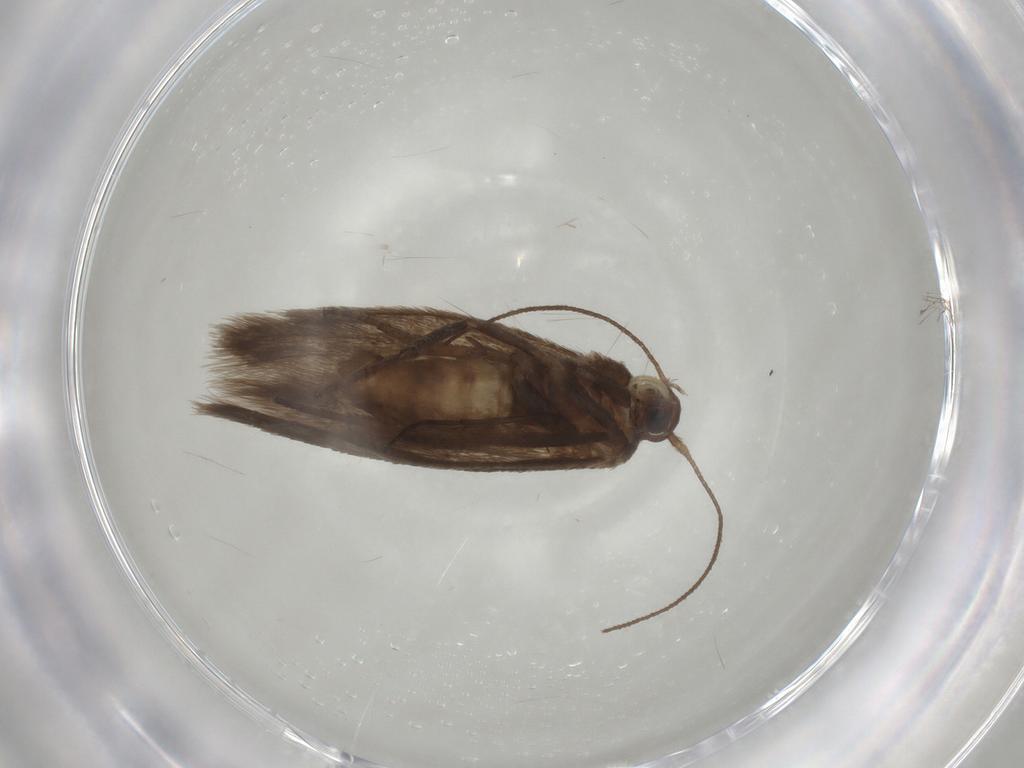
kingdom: Animalia
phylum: Arthropoda
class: Insecta
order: Lepidoptera
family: Limacodidae
